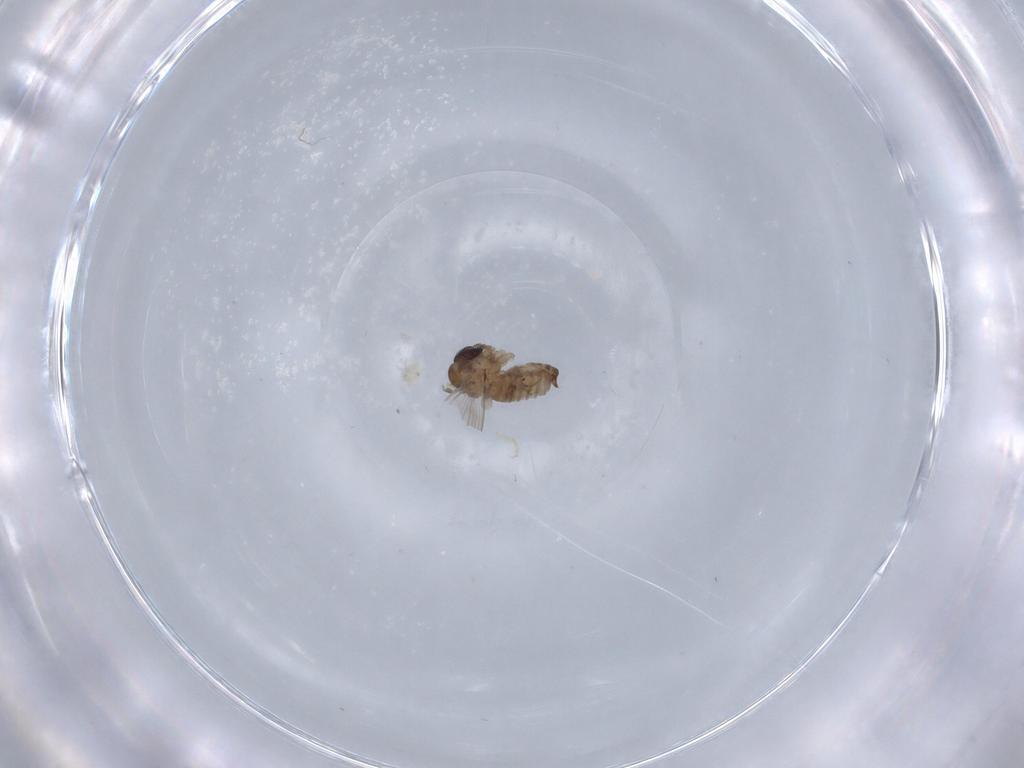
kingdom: Animalia
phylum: Arthropoda
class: Insecta
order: Diptera
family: Psychodidae
